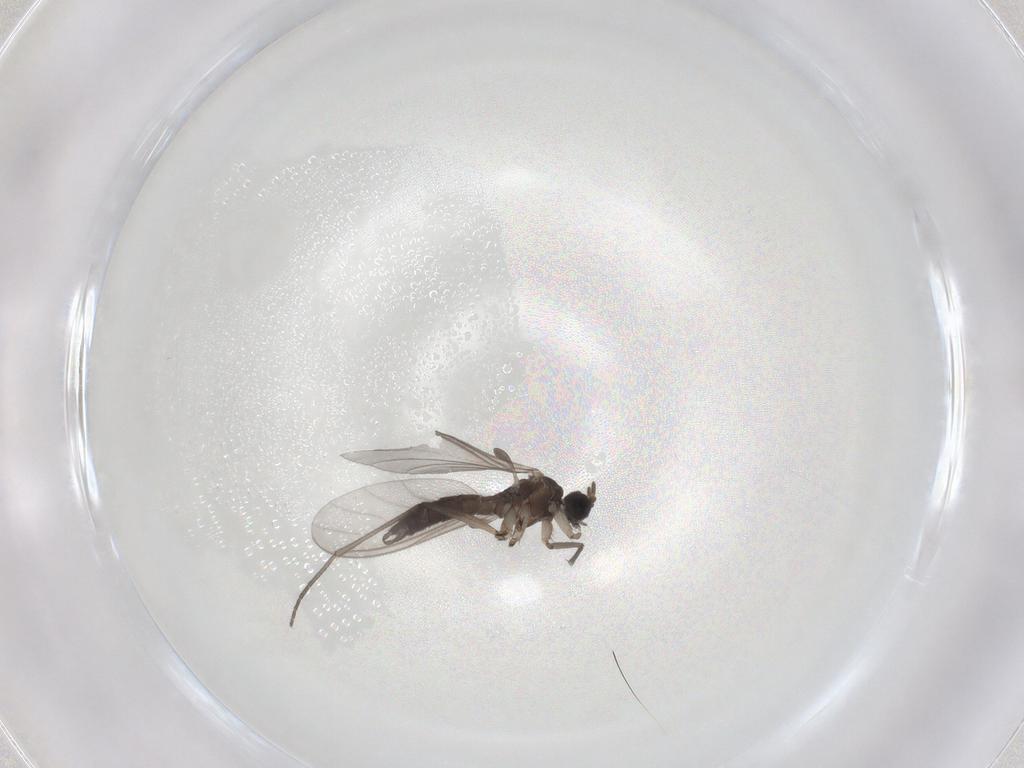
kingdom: Animalia
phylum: Arthropoda
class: Insecta
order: Diptera
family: Sciaridae
